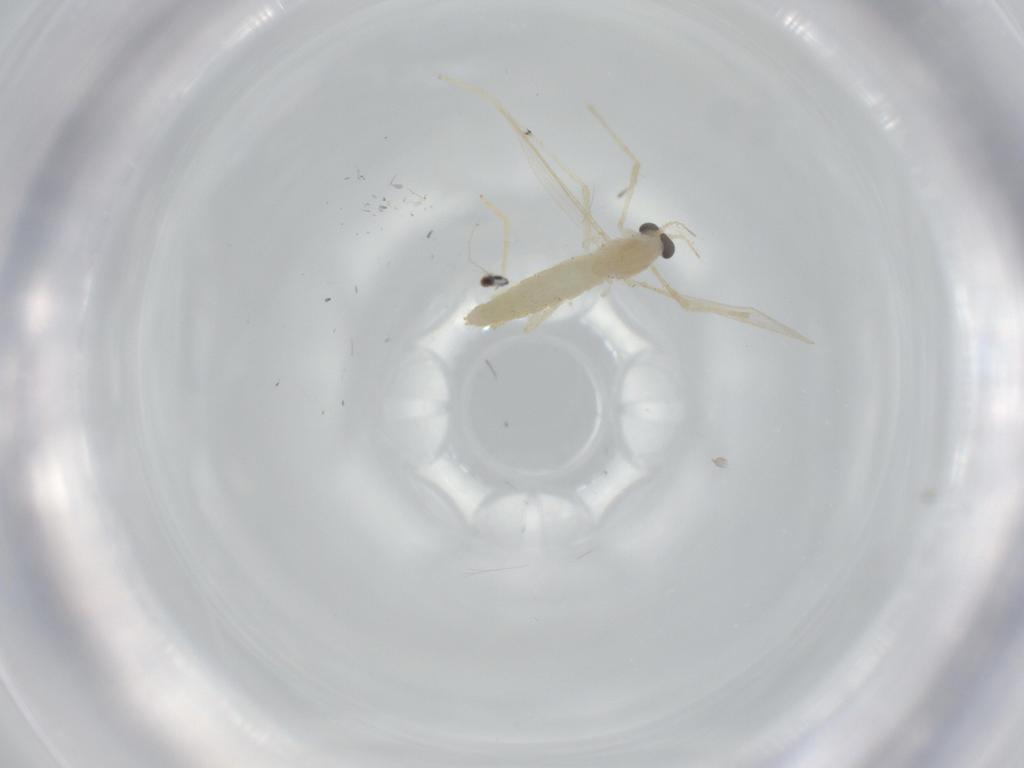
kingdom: Animalia
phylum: Arthropoda
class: Insecta
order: Diptera
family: Chironomidae
